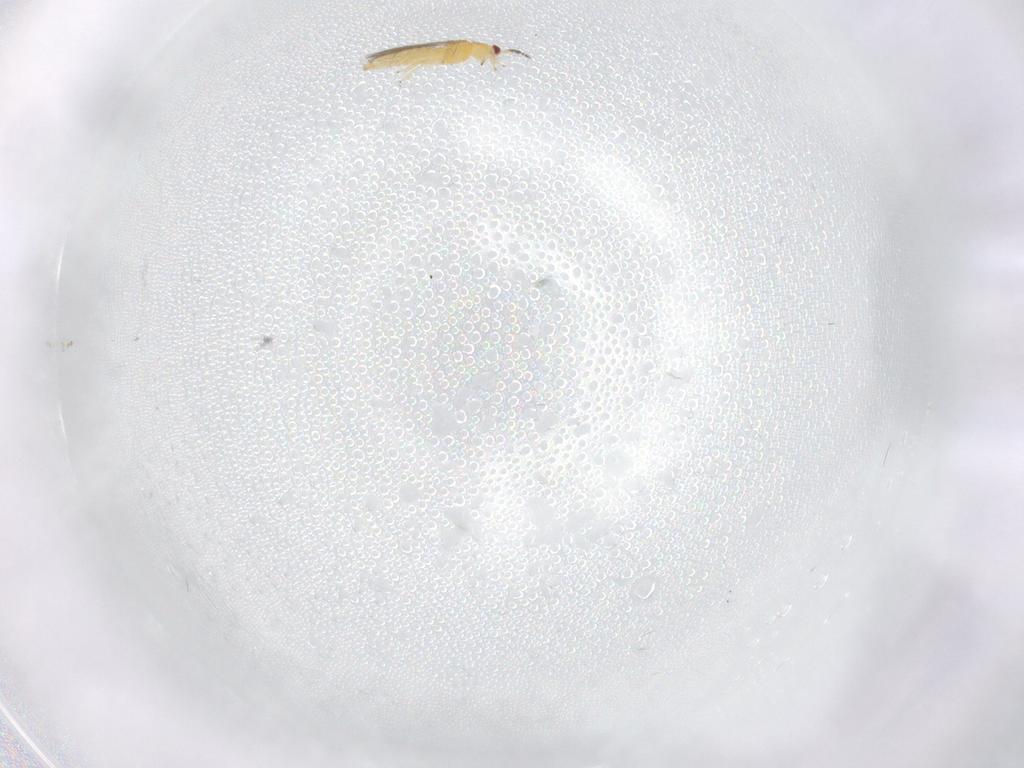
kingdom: Animalia
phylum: Arthropoda
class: Insecta
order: Thysanoptera
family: Thripidae
